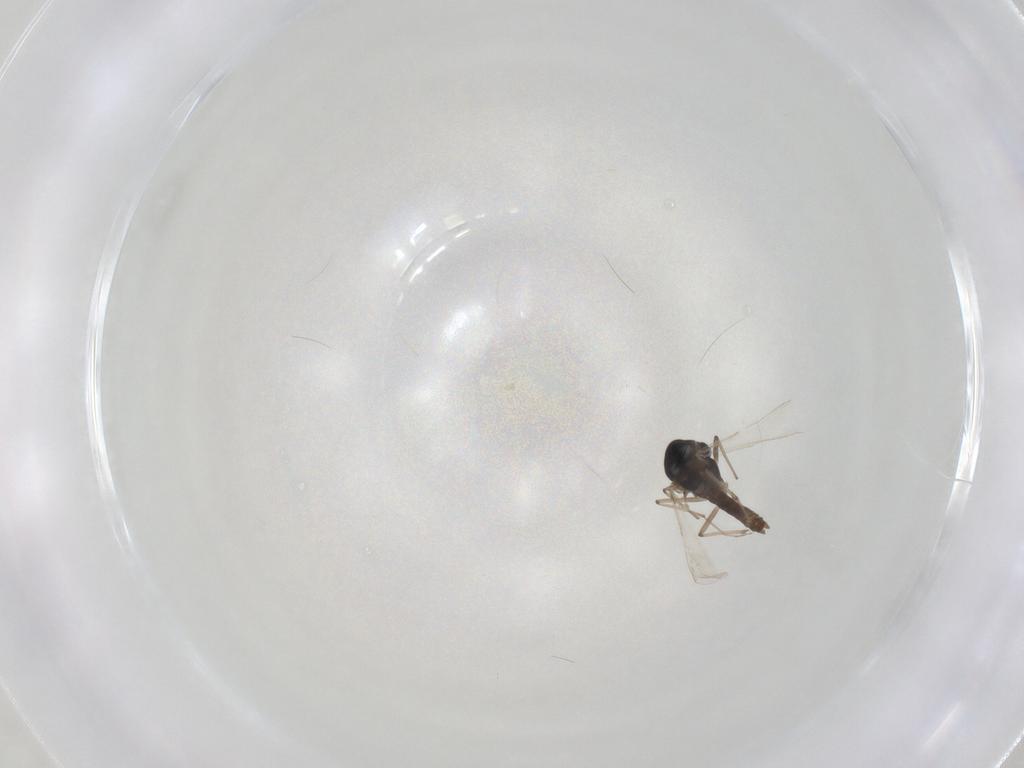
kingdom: Animalia
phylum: Arthropoda
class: Insecta
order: Diptera
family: Chironomidae
